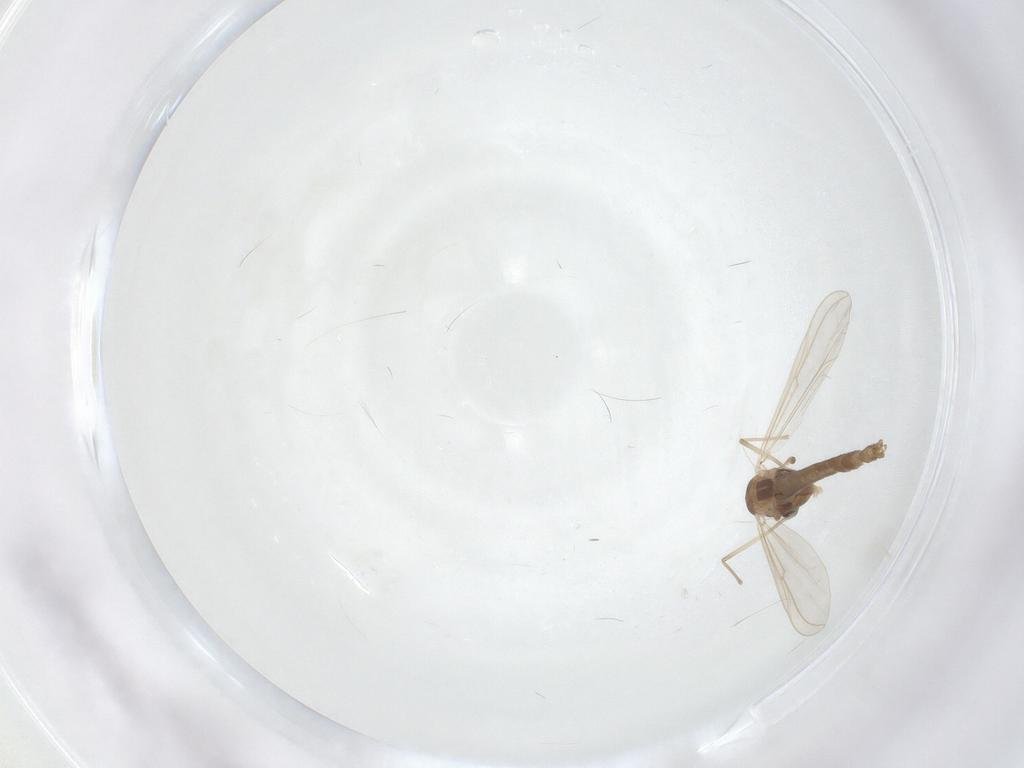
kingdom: Animalia
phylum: Arthropoda
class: Insecta
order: Diptera
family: Chironomidae
